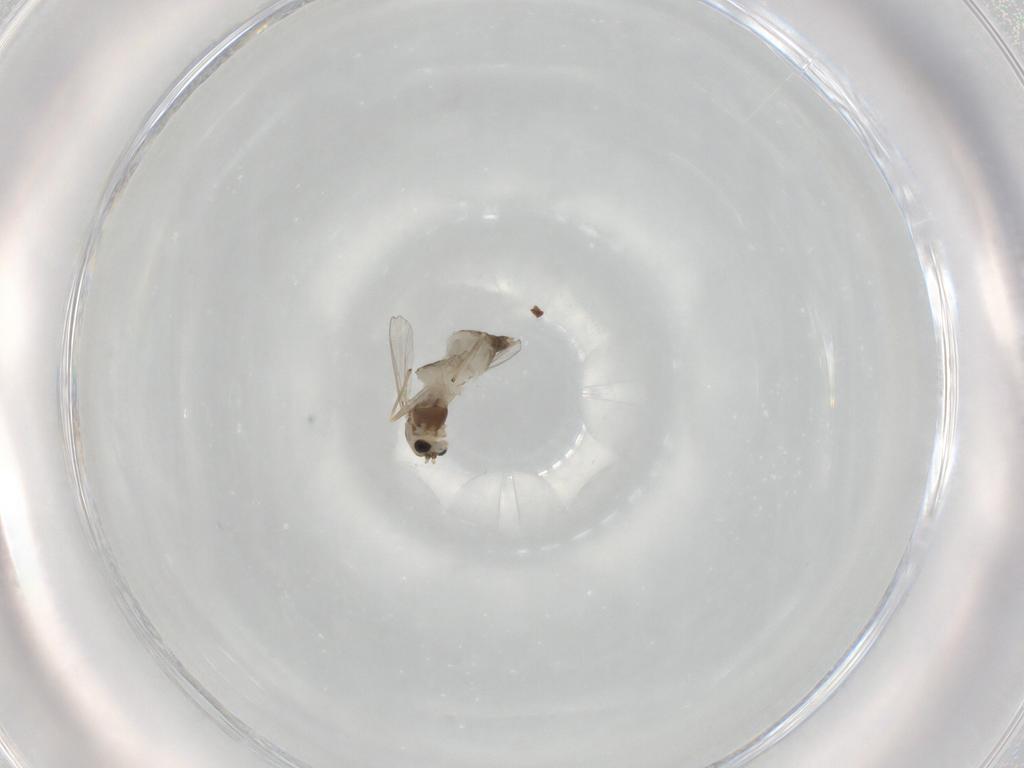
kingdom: Animalia
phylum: Arthropoda
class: Insecta
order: Diptera
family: Chironomidae
